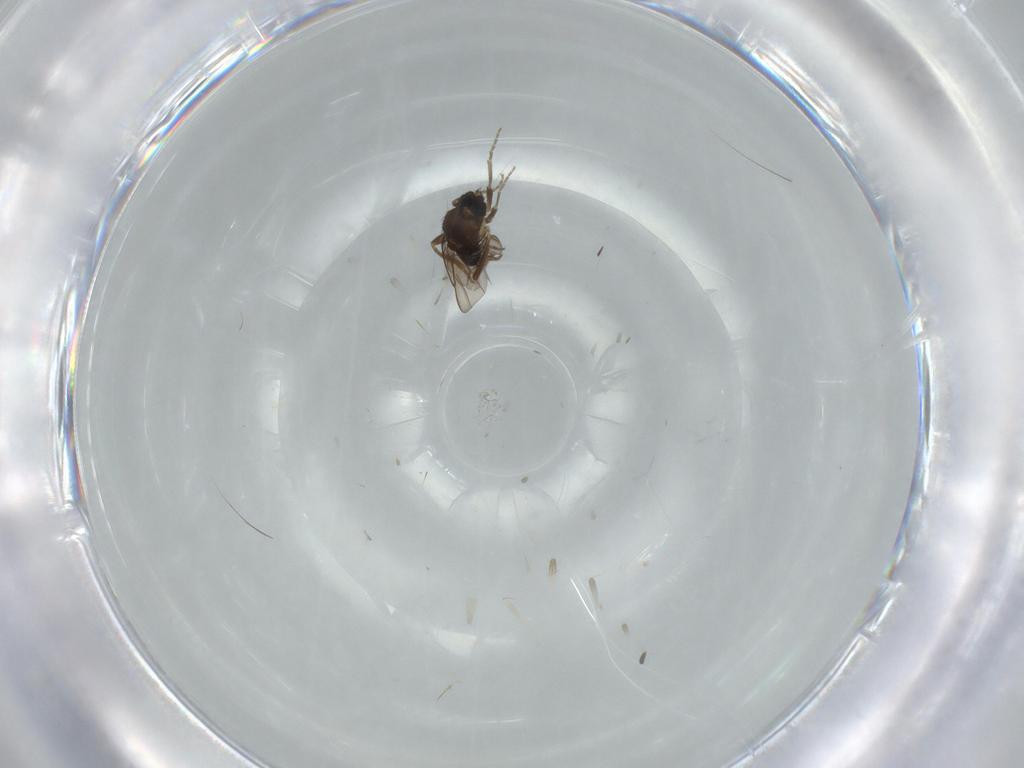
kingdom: Animalia
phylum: Arthropoda
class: Insecta
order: Diptera
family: Phoridae
